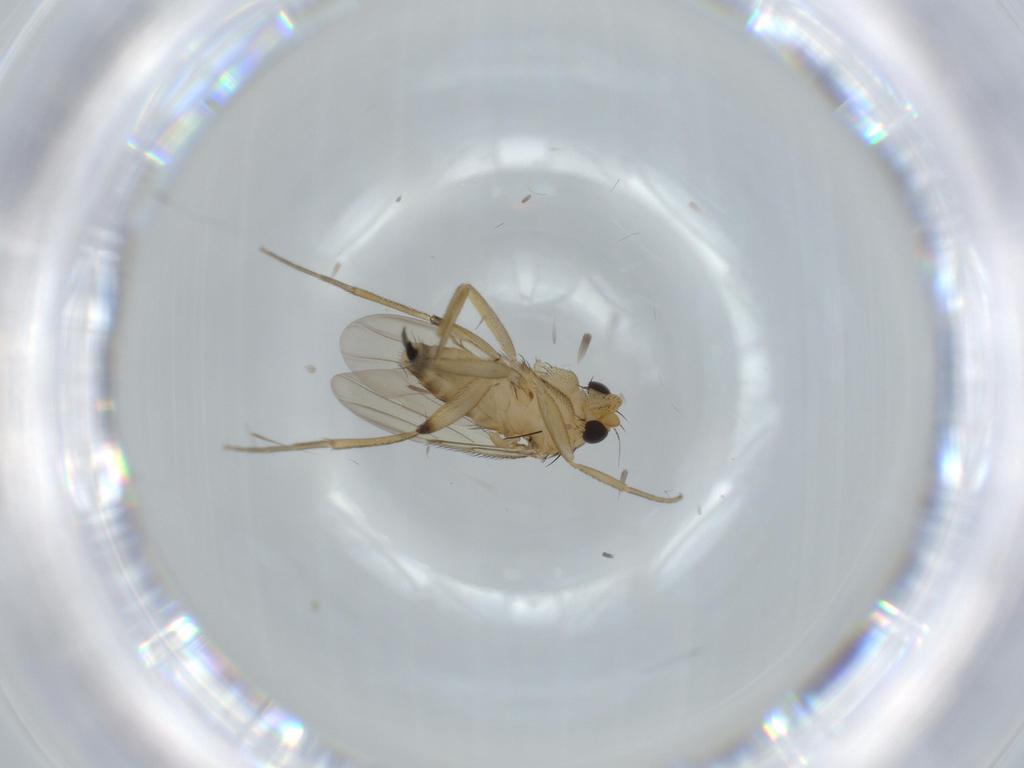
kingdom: Animalia
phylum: Arthropoda
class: Insecta
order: Diptera
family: Phoridae
